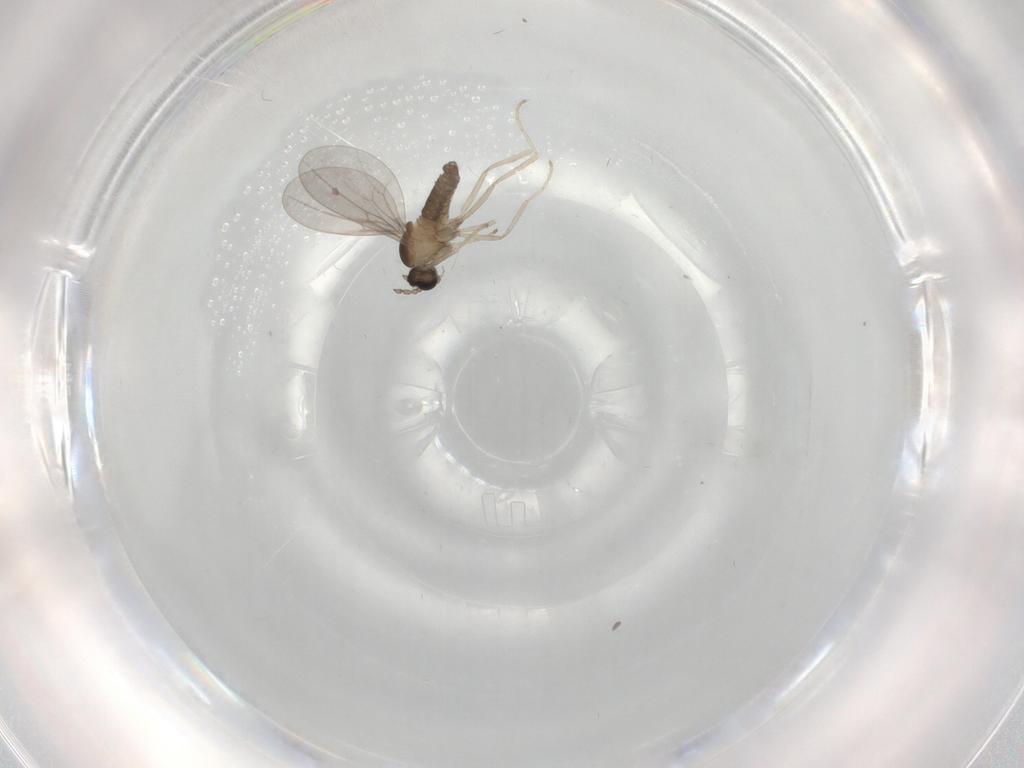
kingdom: Animalia
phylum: Arthropoda
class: Insecta
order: Diptera
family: Cecidomyiidae
